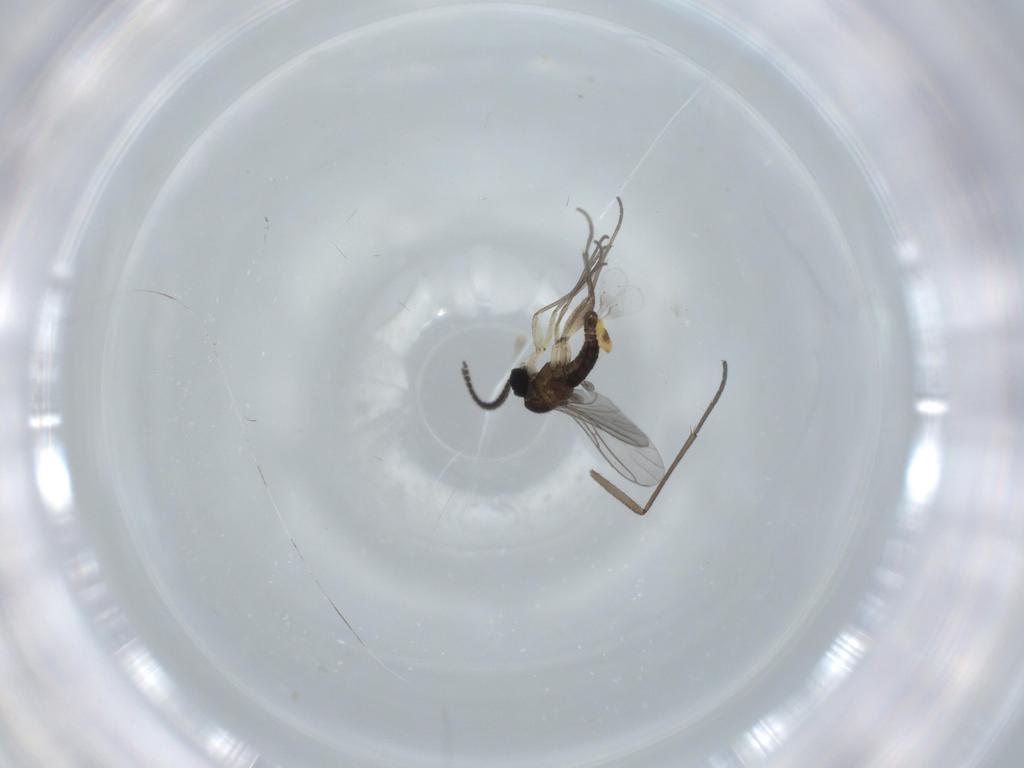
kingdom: Animalia
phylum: Arthropoda
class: Insecta
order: Diptera
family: Sciaridae
